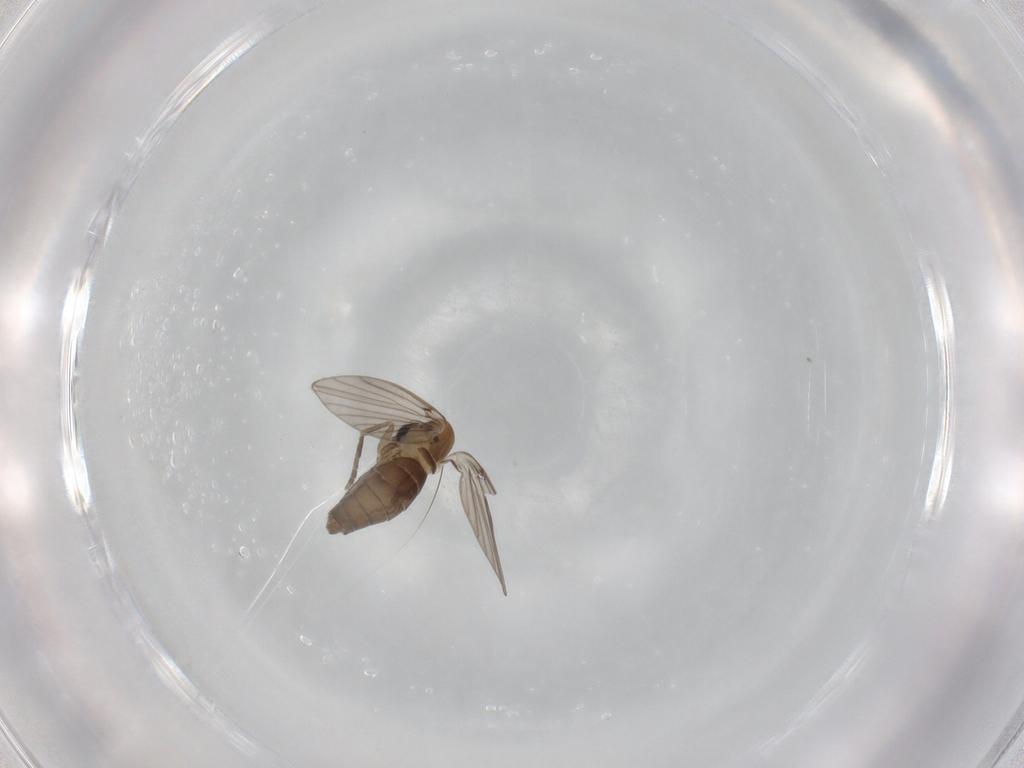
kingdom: Animalia
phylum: Arthropoda
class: Insecta
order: Diptera
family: Psychodidae
